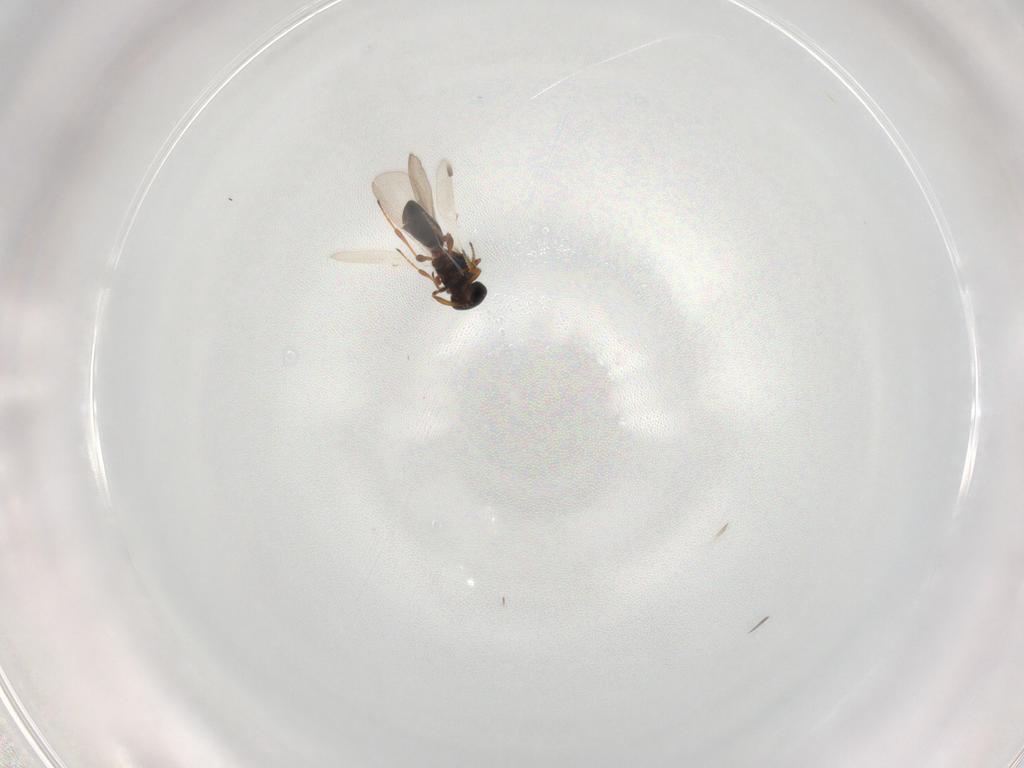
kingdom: Animalia
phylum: Arthropoda
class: Insecta
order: Hymenoptera
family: Platygastridae
